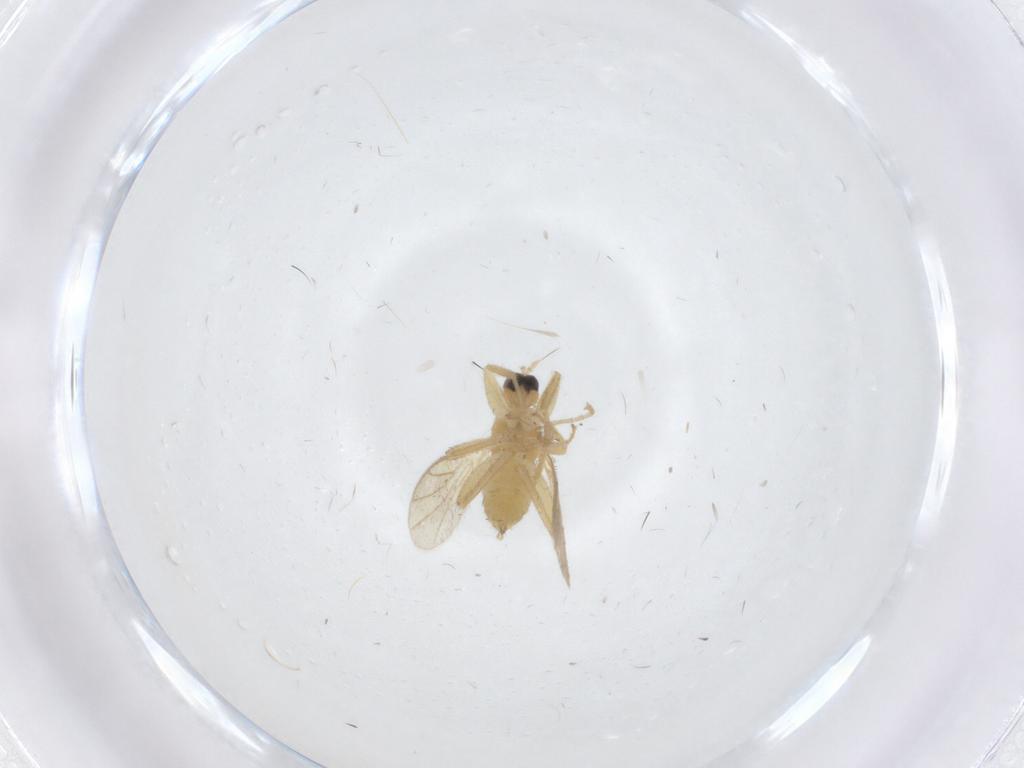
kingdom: Animalia
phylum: Arthropoda
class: Insecta
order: Diptera
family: Hybotidae
